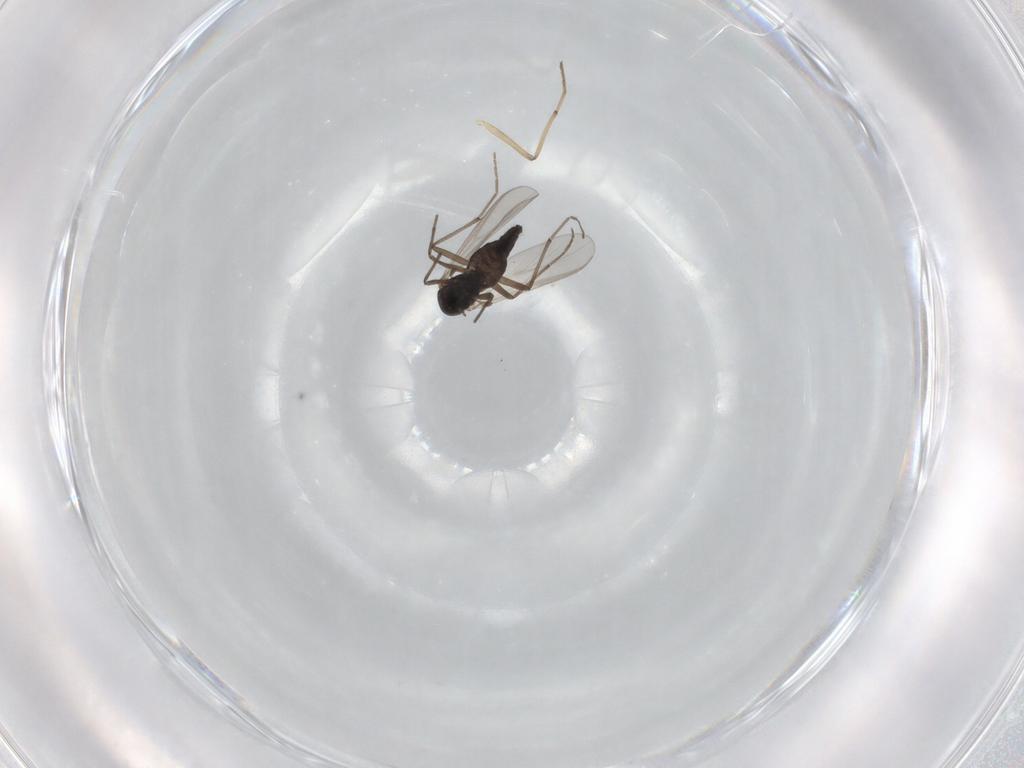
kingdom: Animalia
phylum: Arthropoda
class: Insecta
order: Diptera
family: Chironomidae
